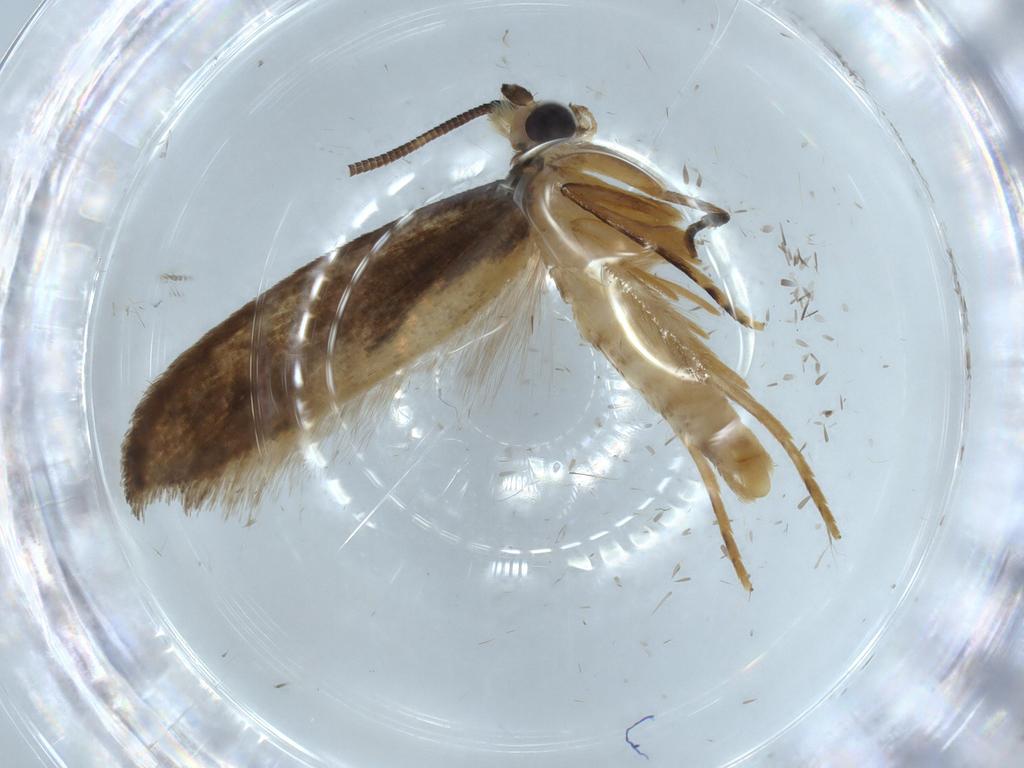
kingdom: Animalia
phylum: Arthropoda
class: Insecta
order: Lepidoptera
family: Tineidae
